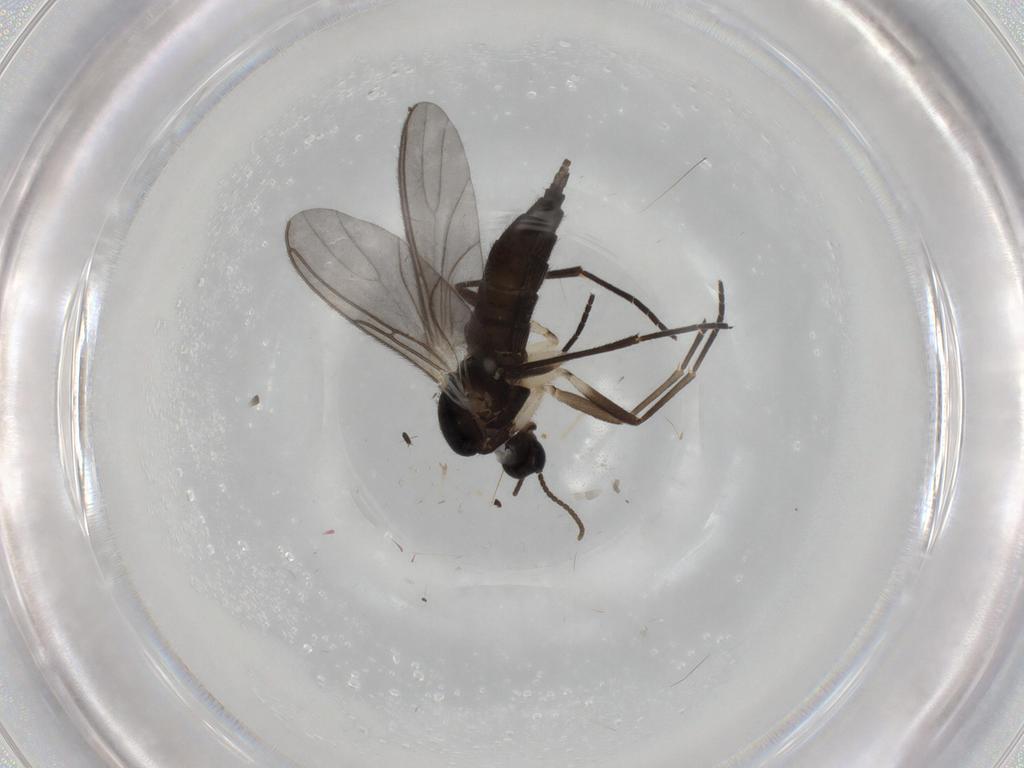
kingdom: Animalia
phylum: Arthropoda
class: Insecta
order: Diptera
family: Sciaridae
